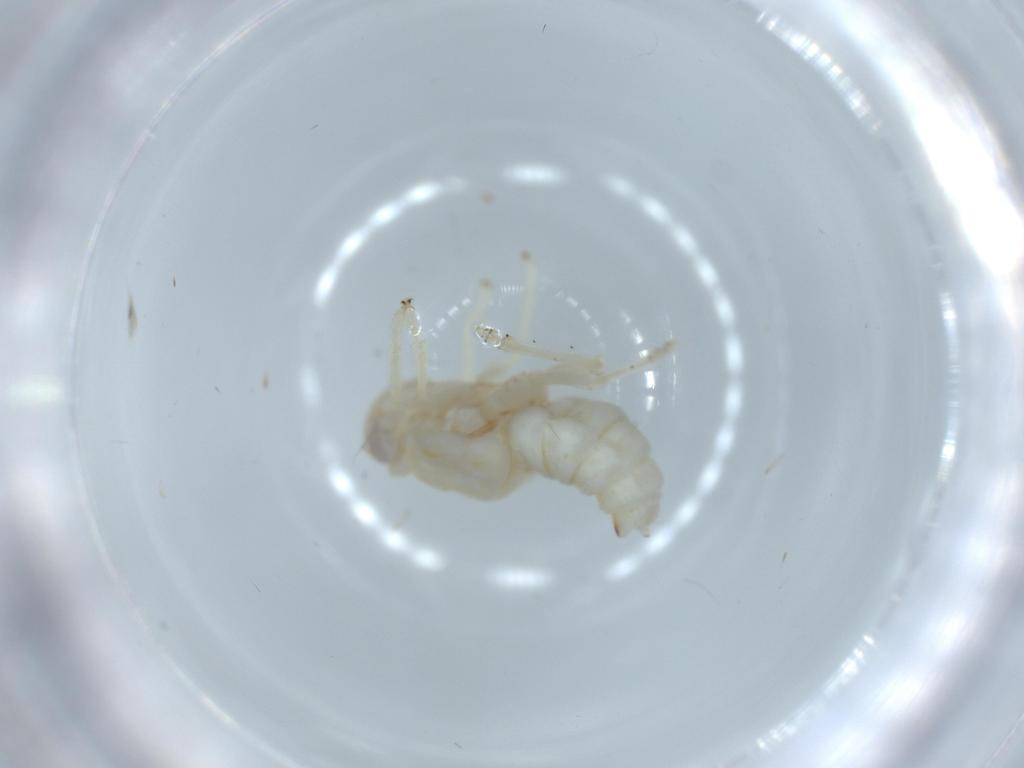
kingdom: Animalia
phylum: Arthropoda
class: Insecta
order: Hemiptera
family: Nogodinidae
